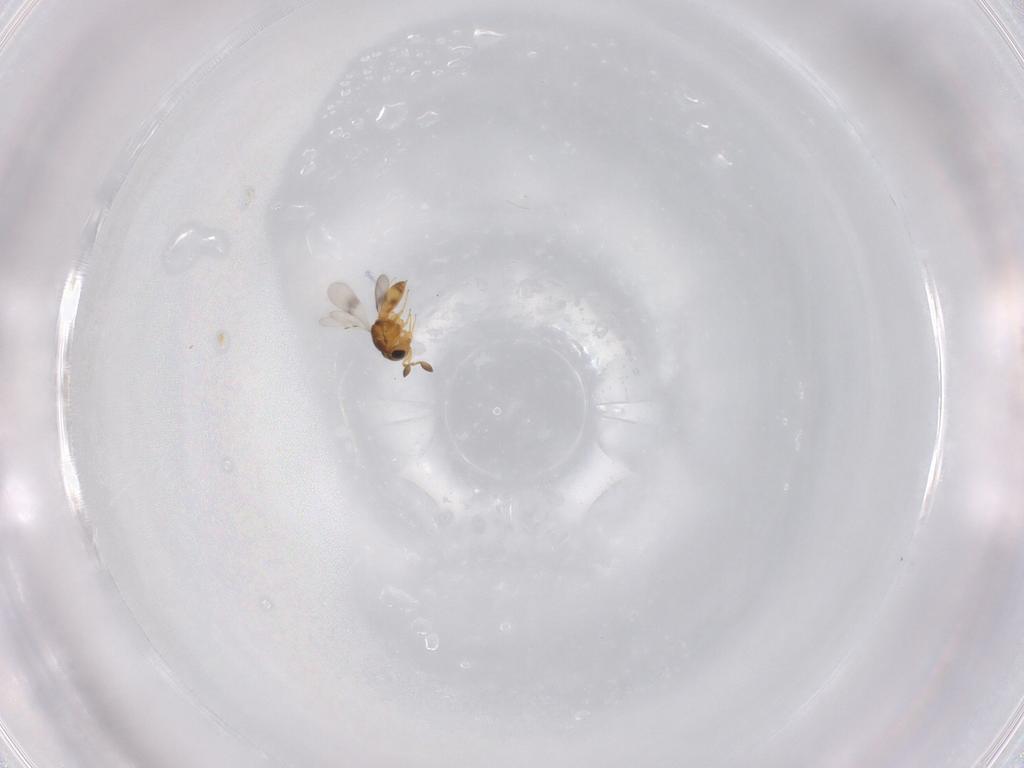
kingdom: Animalia
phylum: Arthropoda
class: Insecta
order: Hymenoptera
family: Scelionidae
